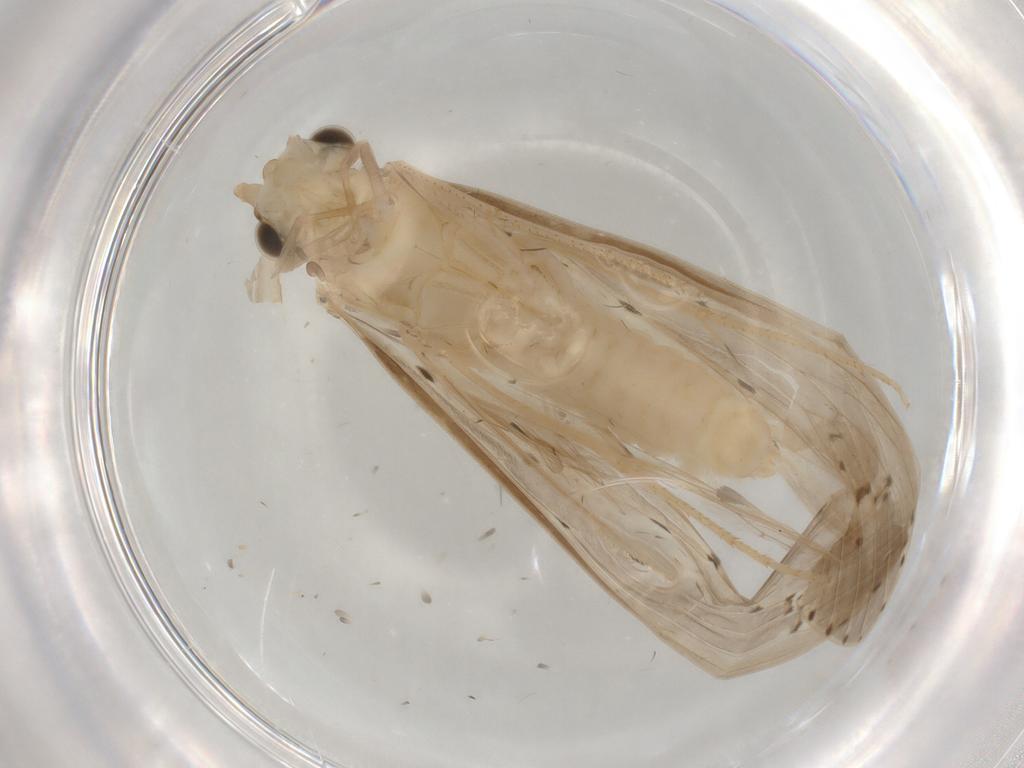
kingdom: Animalia
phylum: Arthropoda
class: Insecta
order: Trichoptera
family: Leptoceridae
